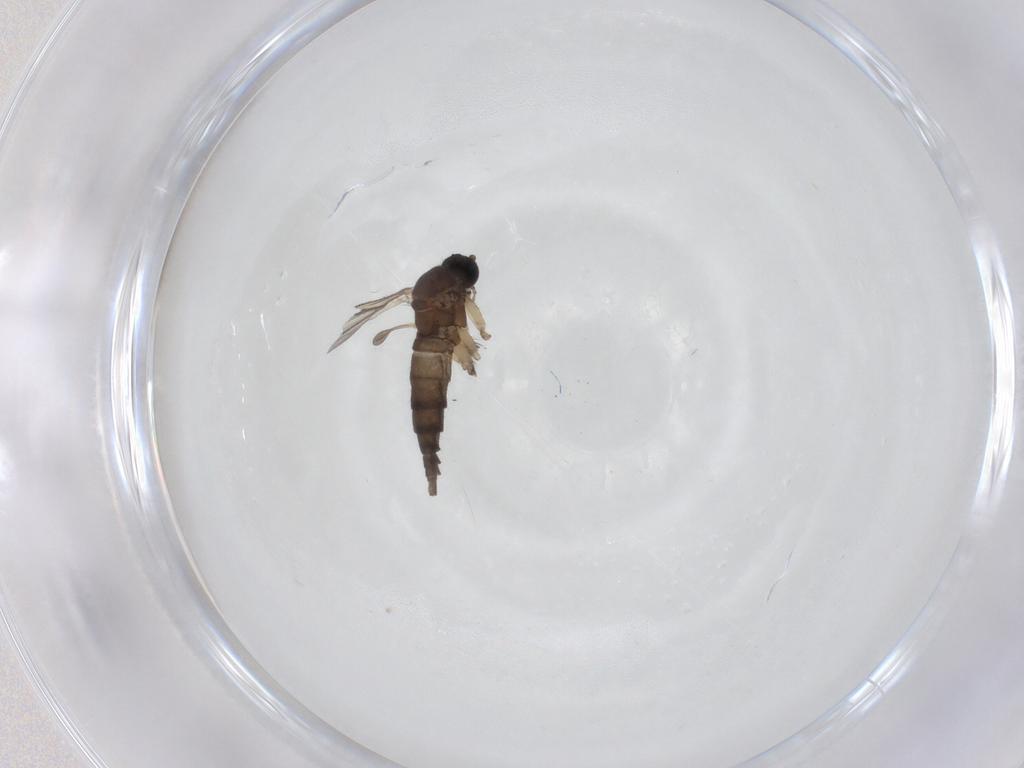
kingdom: Animalia
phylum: Arthropoda
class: Insecta
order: Diptera
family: Sciaridae
